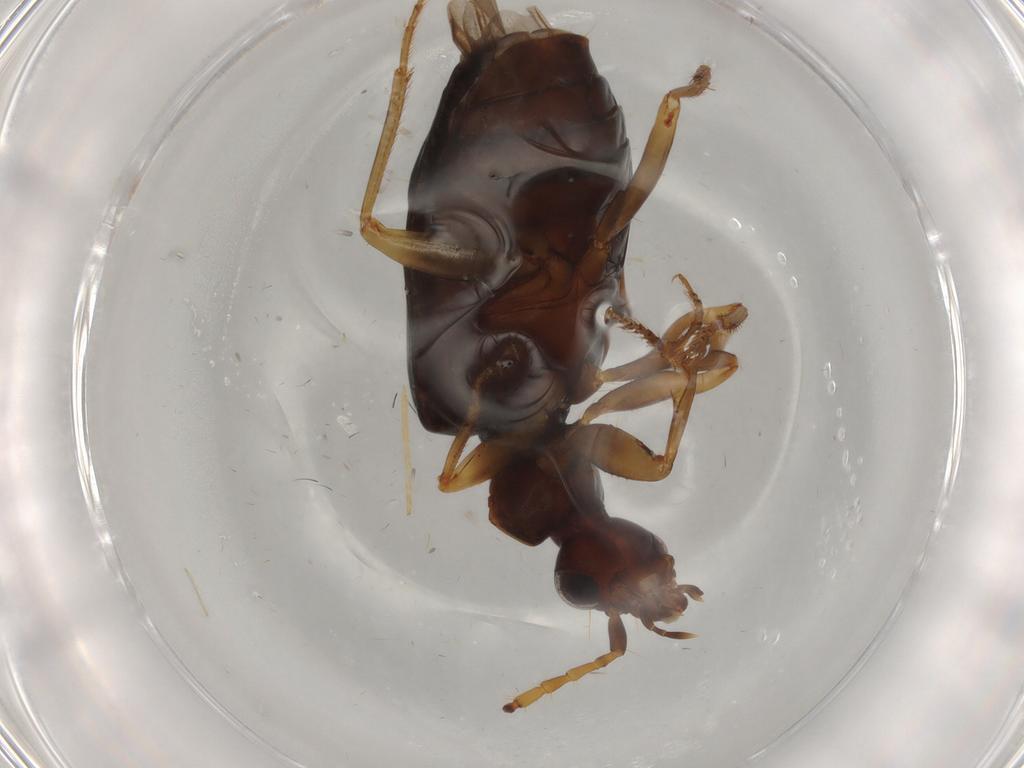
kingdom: Animalia
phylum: Arthropoda
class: Insecta
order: Coleoptera
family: Carabidae
